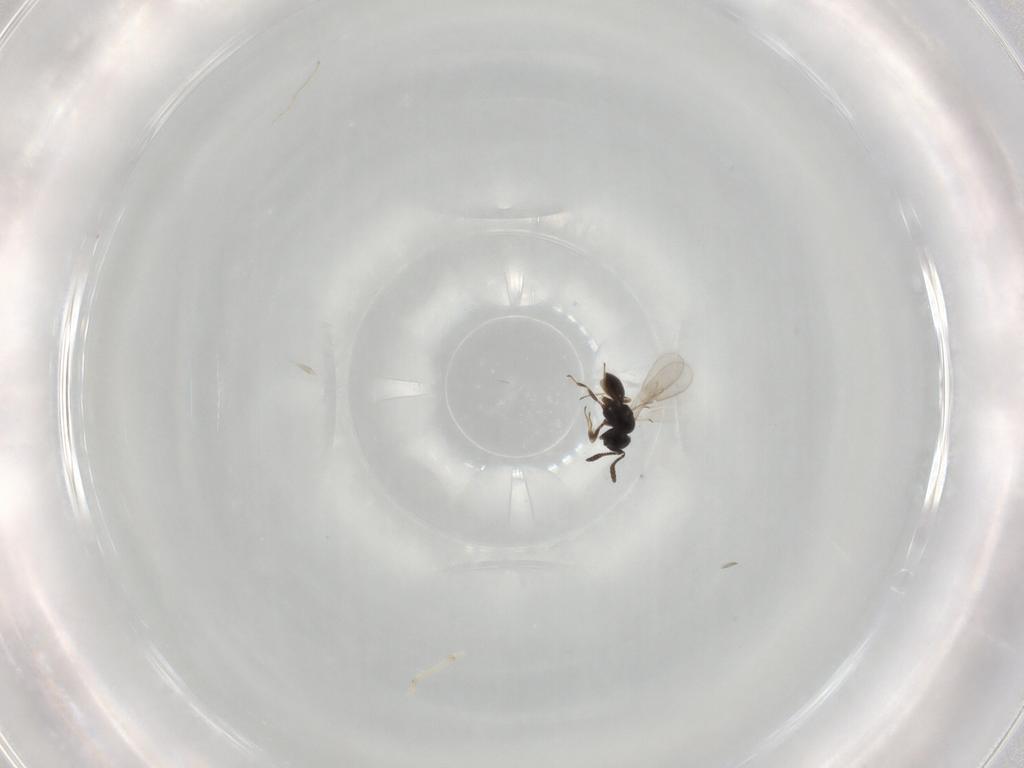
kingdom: Animalia
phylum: Arthropoda
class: Insecta
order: Hymenoptera
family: Scelionidae
